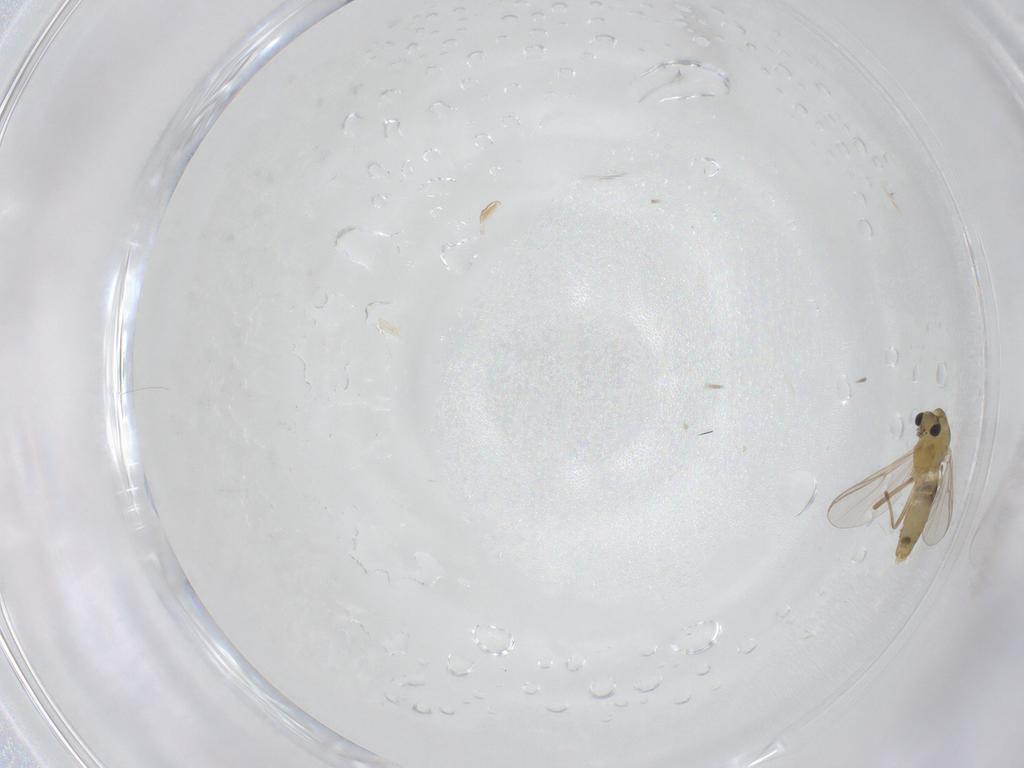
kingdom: Animalia
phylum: Arthropoda
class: Insecta
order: Diptera
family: Chironomidae
